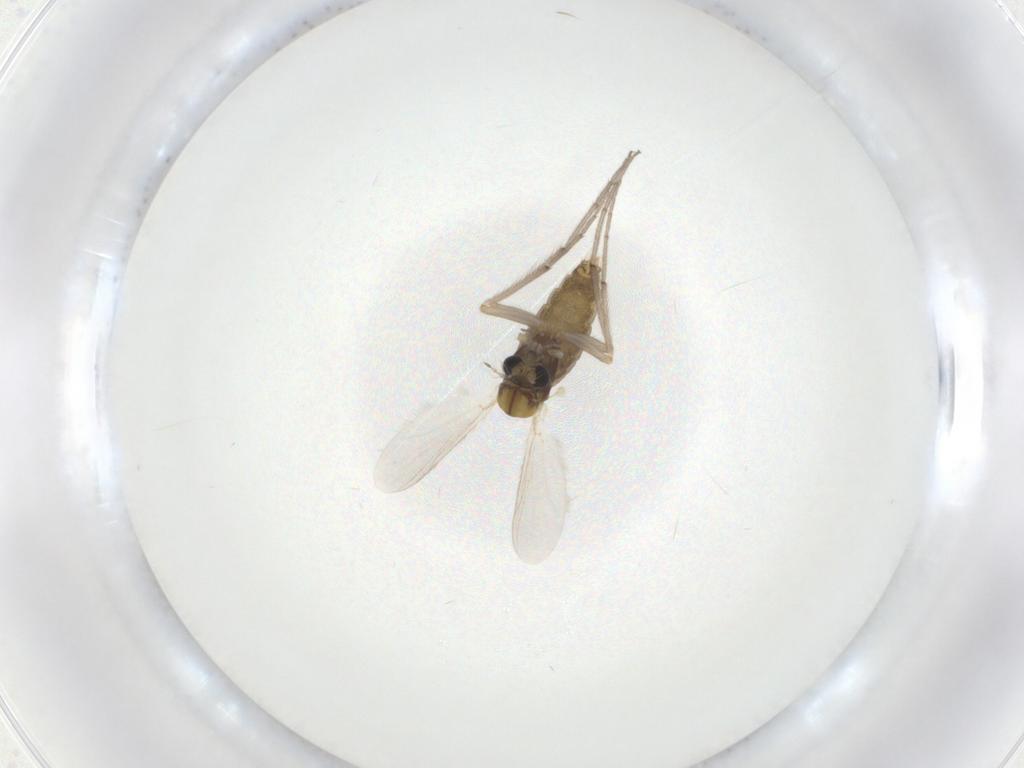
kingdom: Animalia
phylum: Arthropoda
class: Insecta
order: Diptera
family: Chironomidae
